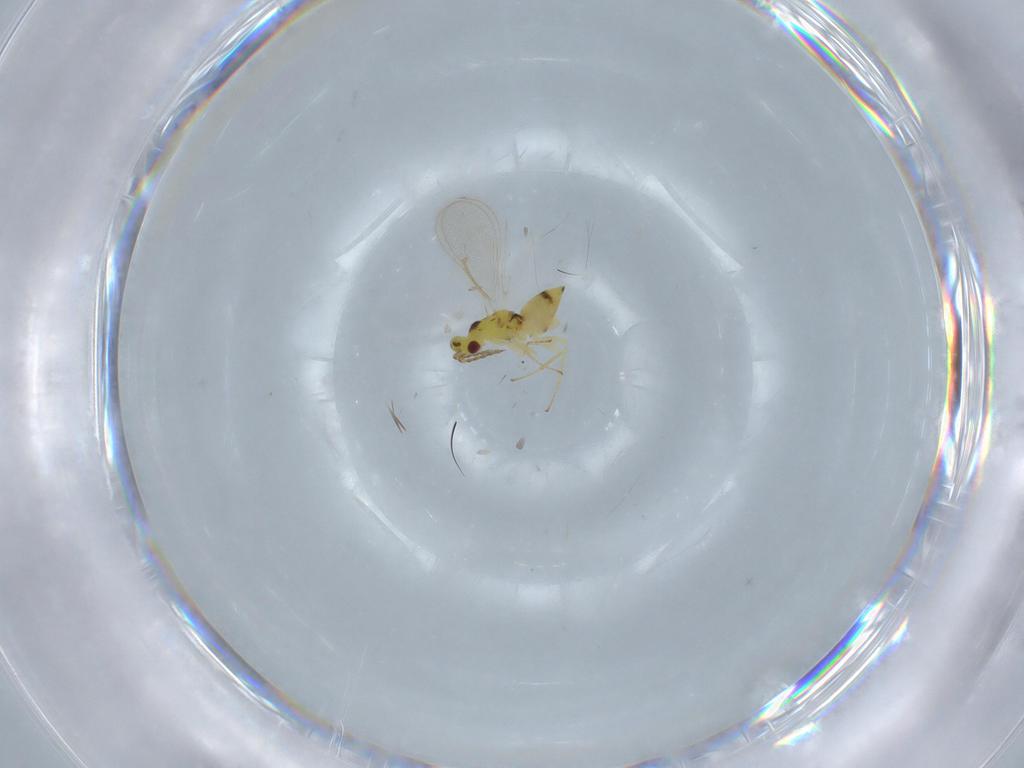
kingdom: Animalia
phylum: Arthropoda
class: Insecta
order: Hymenoptera
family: Eulophidae
